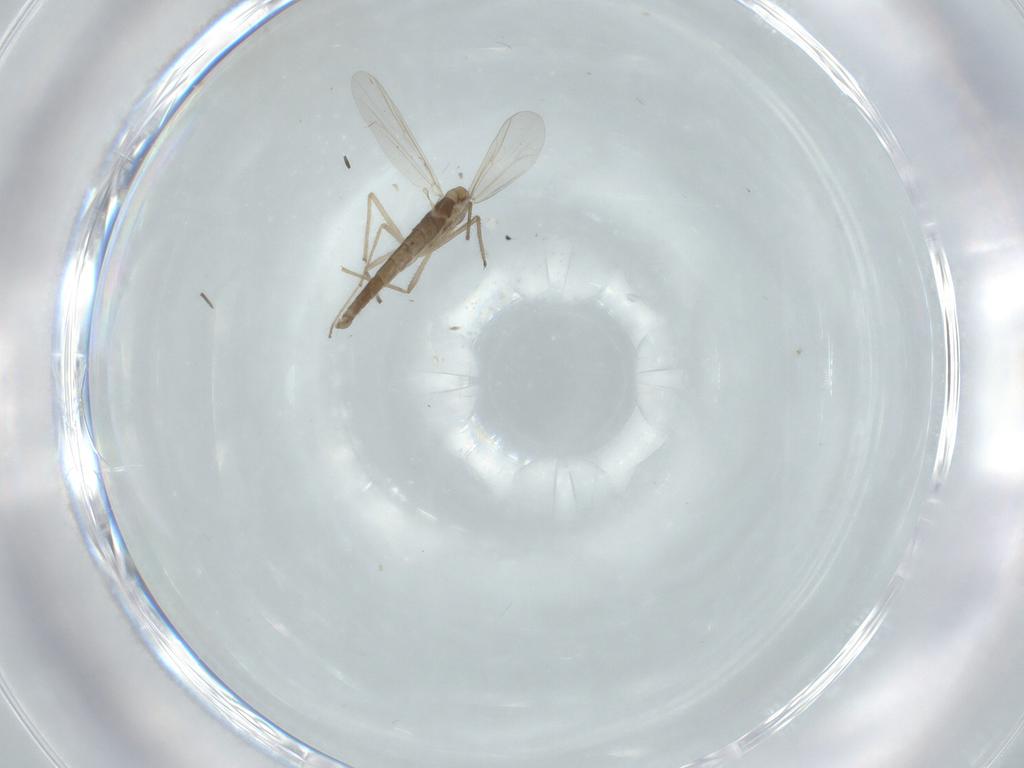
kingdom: Animalia
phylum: Arthropoda
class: Insecta
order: Diptera
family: Chironomidae
